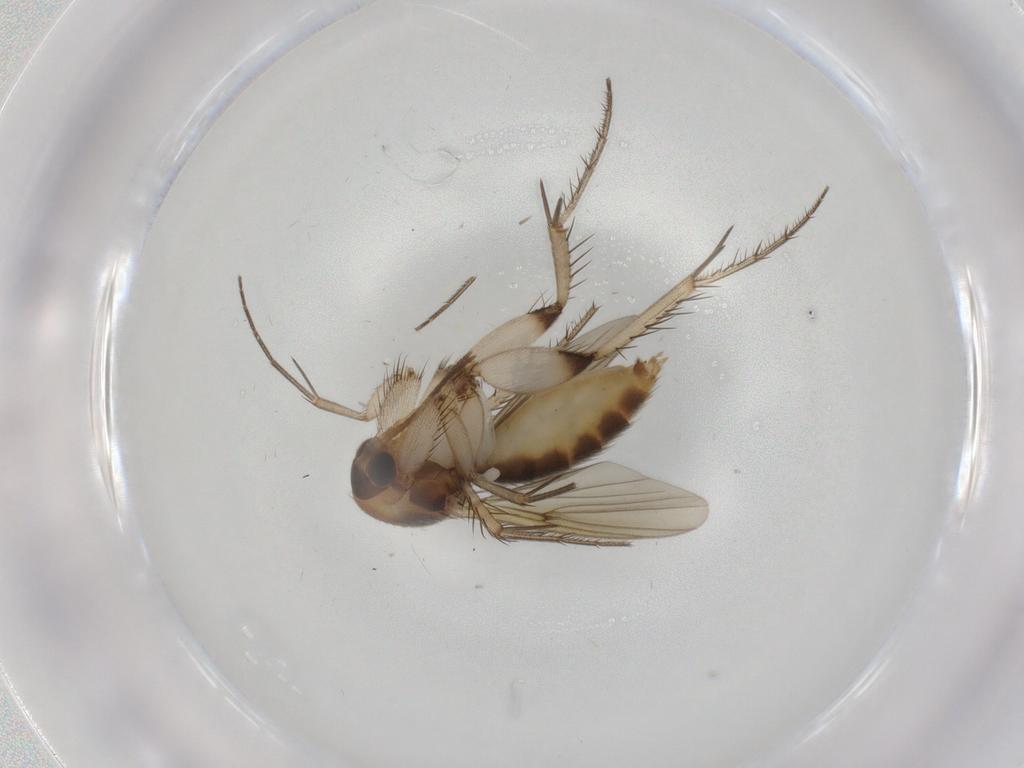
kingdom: Animalia
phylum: Arthropoda
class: Insecta
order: Diptera
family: Ceratopogonidae
